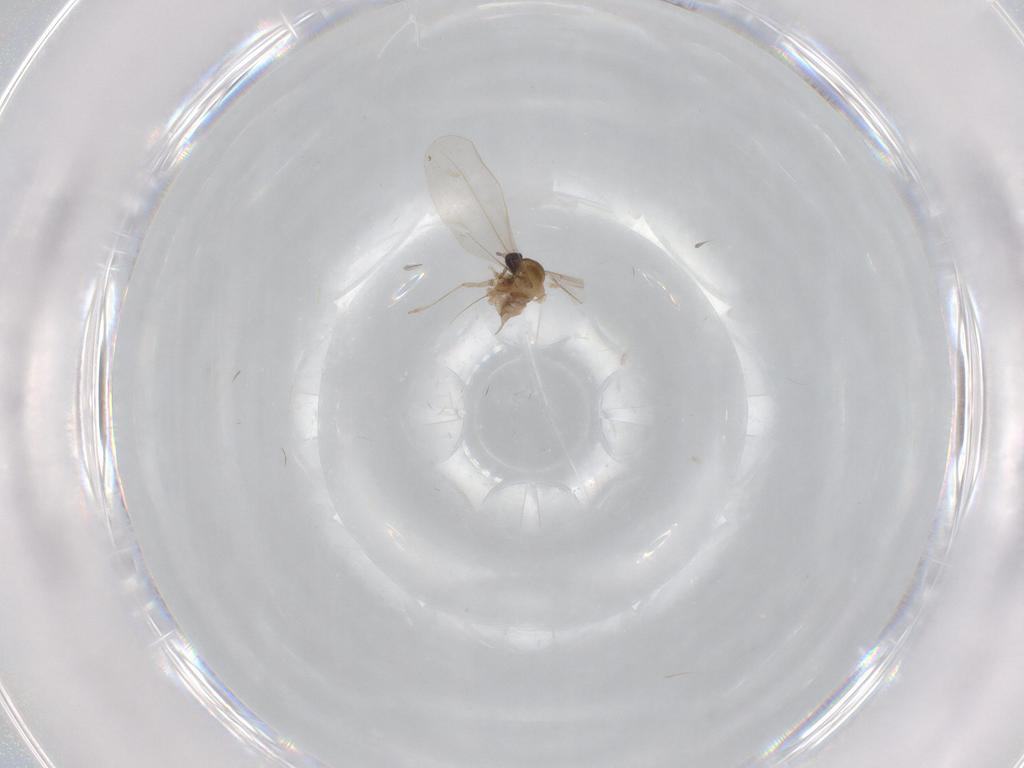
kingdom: Animalia
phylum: Arthropoda
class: Insecta
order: Diptera
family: Cecidomyiidae
